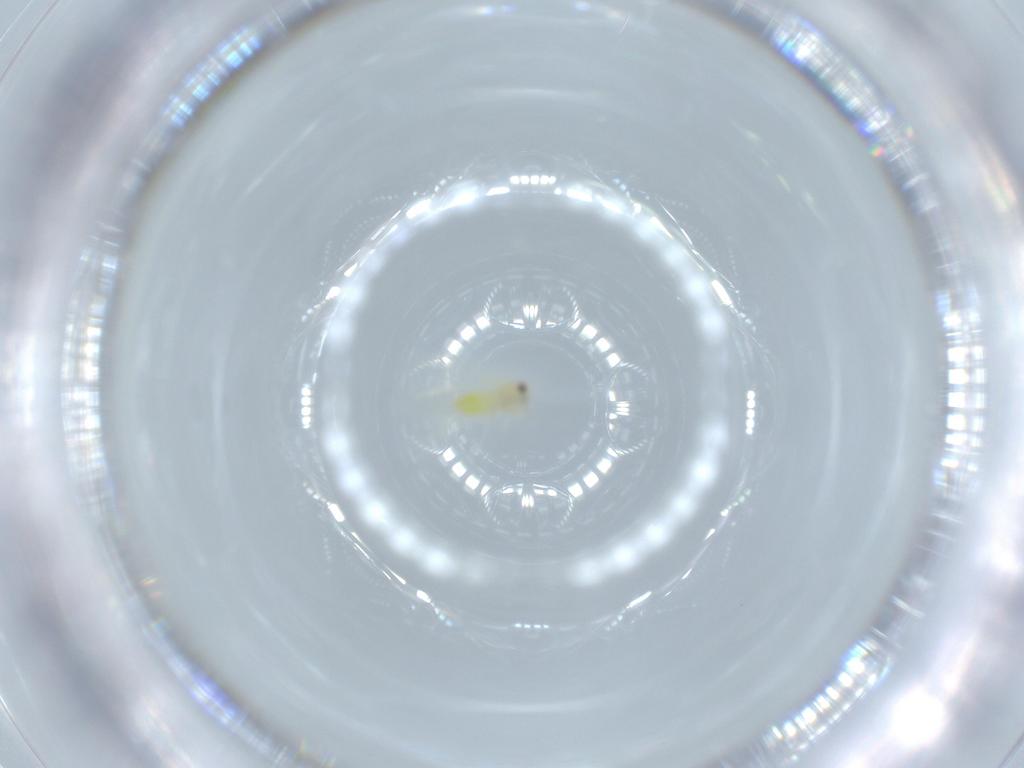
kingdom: Animalia
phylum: Arthropoda
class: Insecta
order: Hemiptera
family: Aleyrodidae
